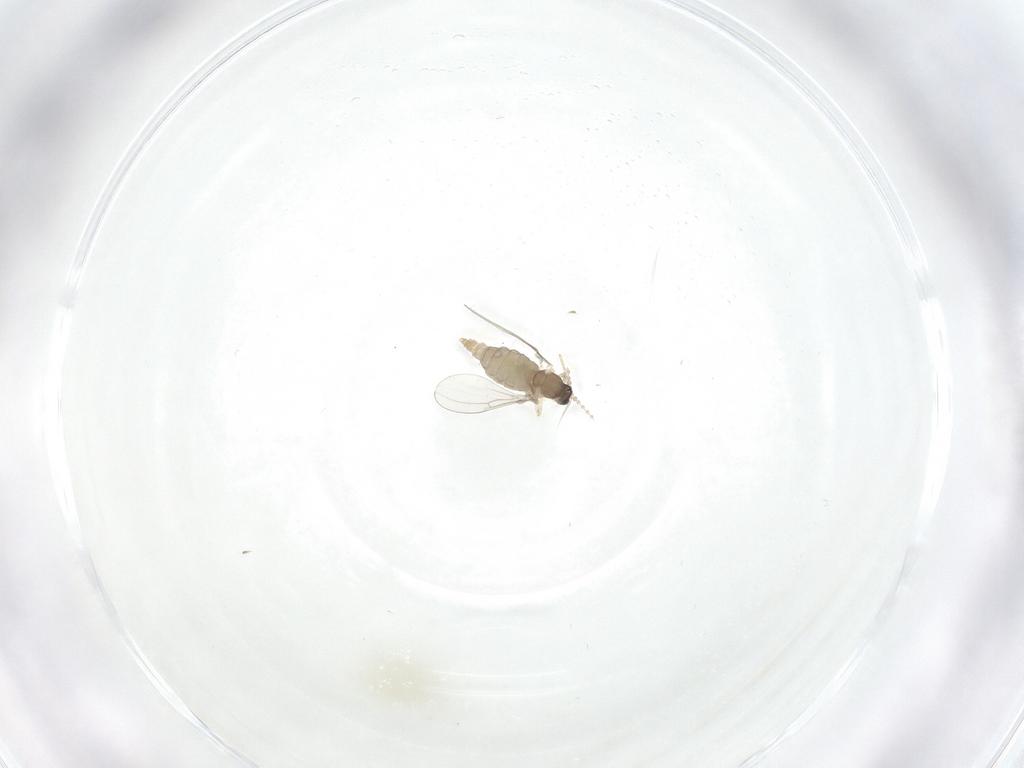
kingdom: Animalia
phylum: Arthropoda
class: Insecta
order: Diptera
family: Cecidomyiidae
